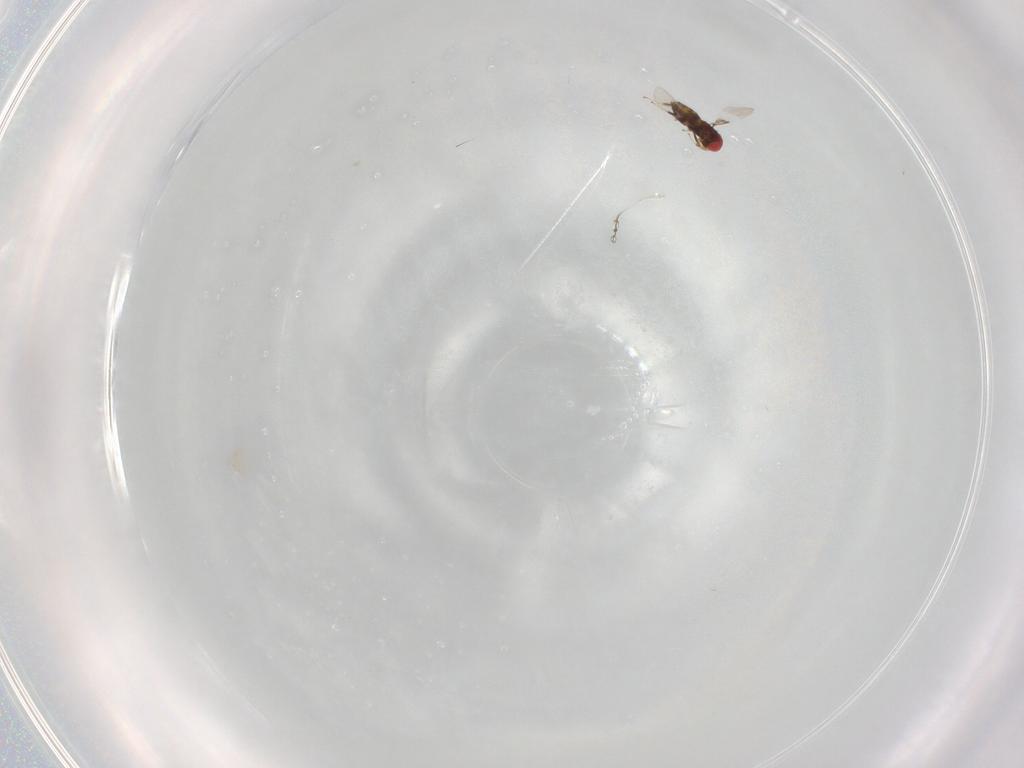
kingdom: Animalia
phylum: Arthropoda
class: Insecta
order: Hymenoptera
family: Trichogrammatidae
